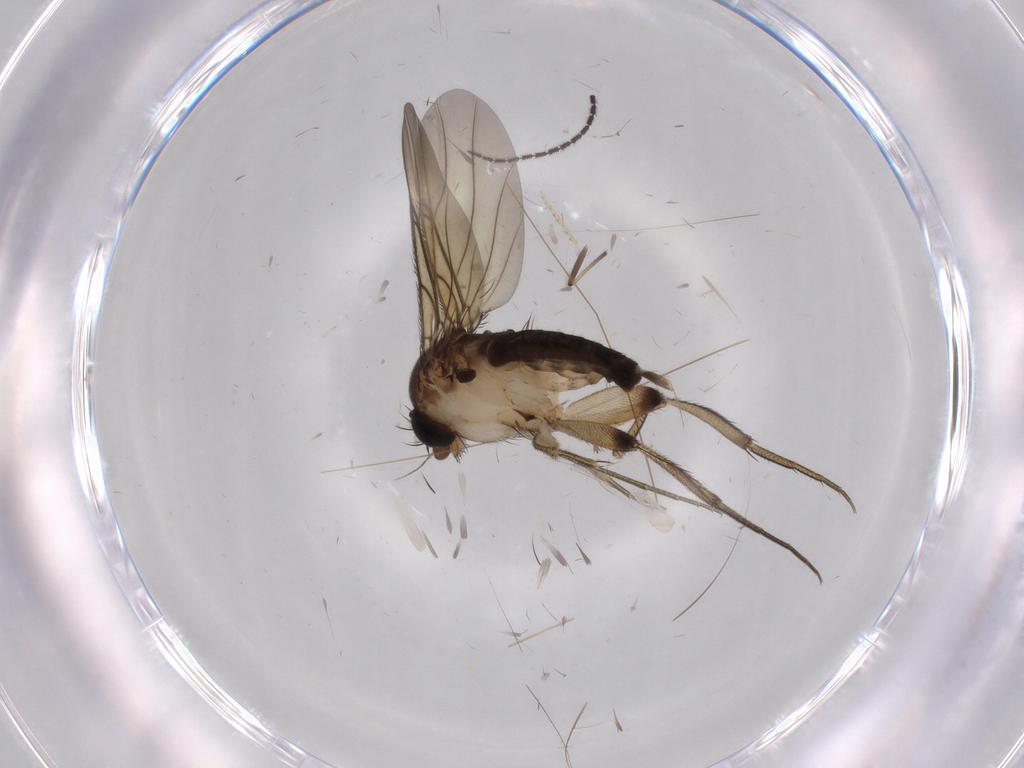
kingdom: Animalia
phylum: Arthropoda
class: Insecta
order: Diptera
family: Cecidomyiidae
